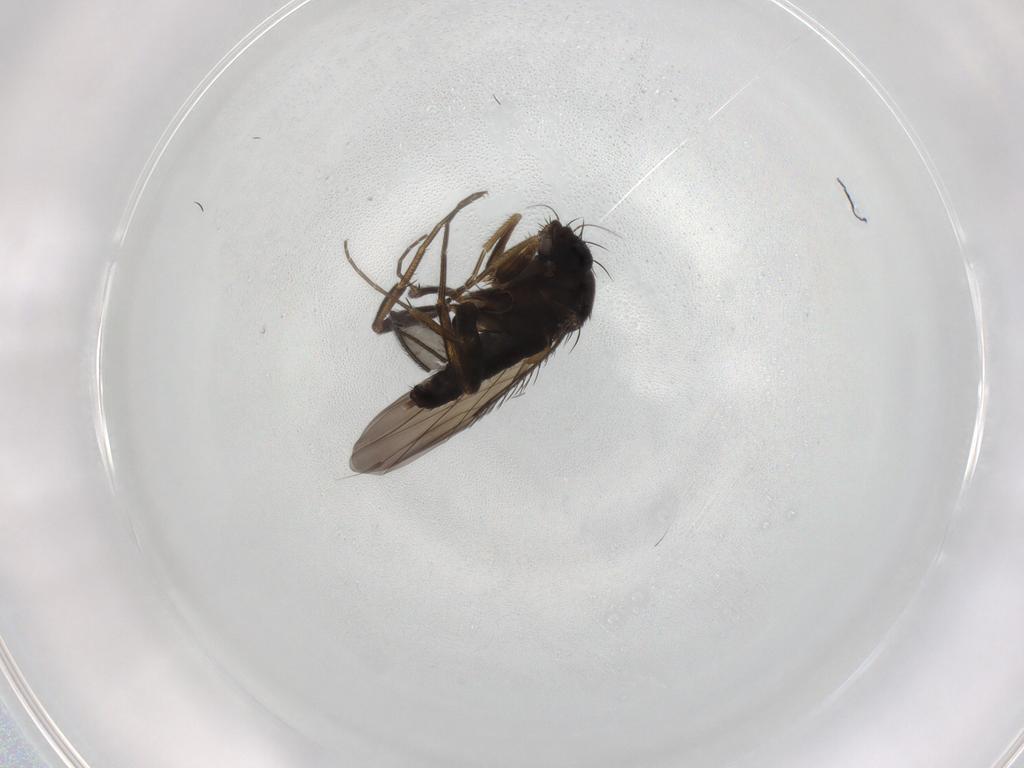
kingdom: Animalia
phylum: Arthropoda
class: Insecta
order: Diptera
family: Phoridae
